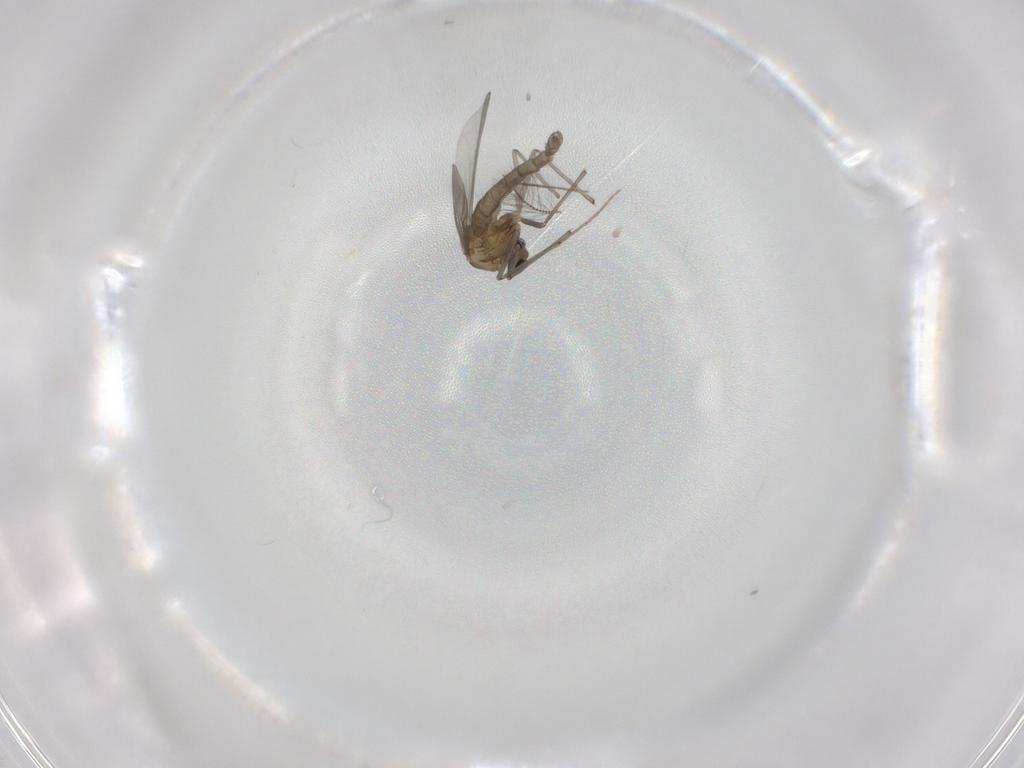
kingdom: Animalia
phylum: Arthropoda
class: Insecta
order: Diptera
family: Chironomidae
